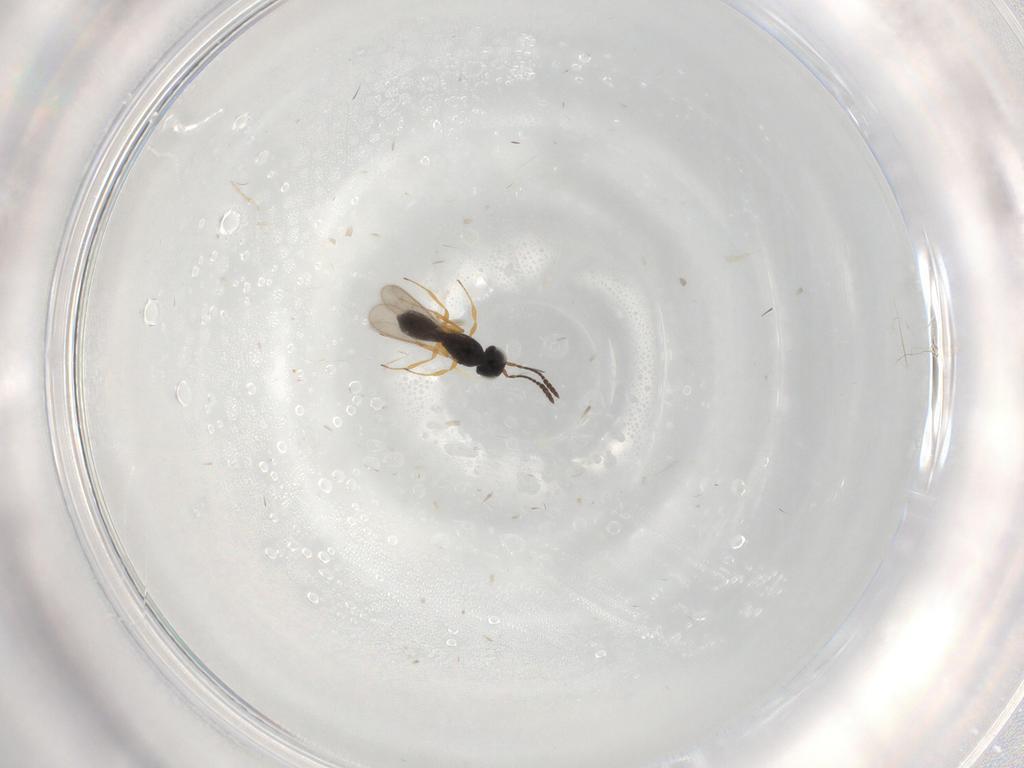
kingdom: Animalia
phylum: Arthropoda
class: Insecta
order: Hymenoptera
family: Scelionidae
